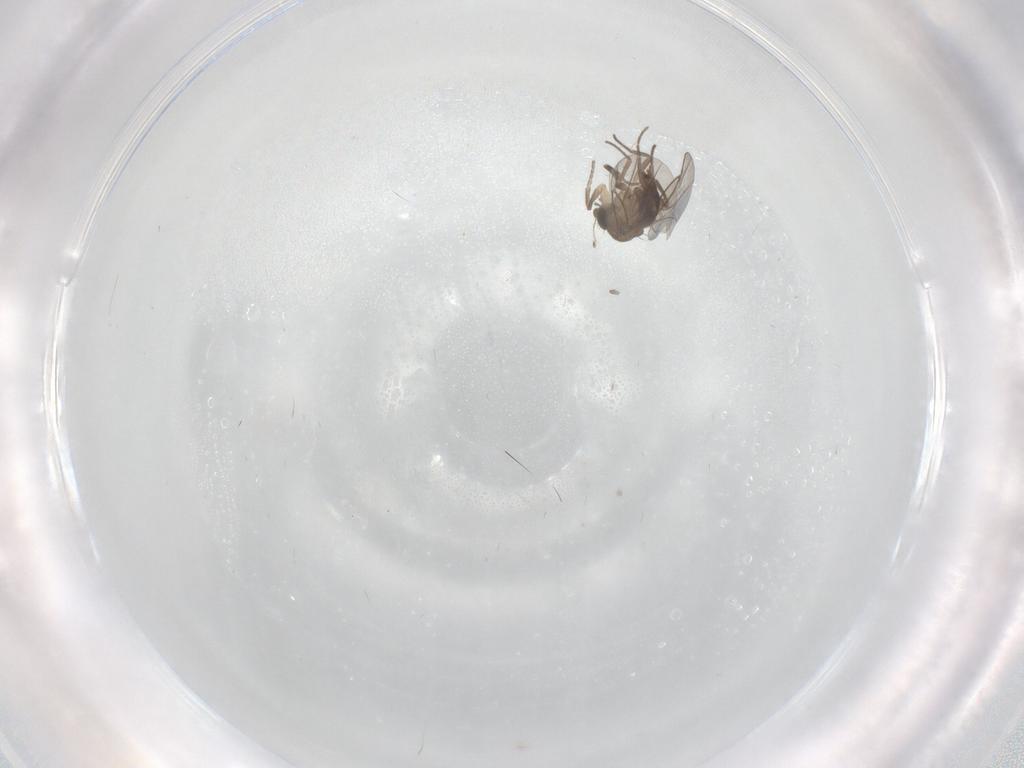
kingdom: Animalia
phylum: Arthropoda
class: Insecta
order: Diptera
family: Phoridae
